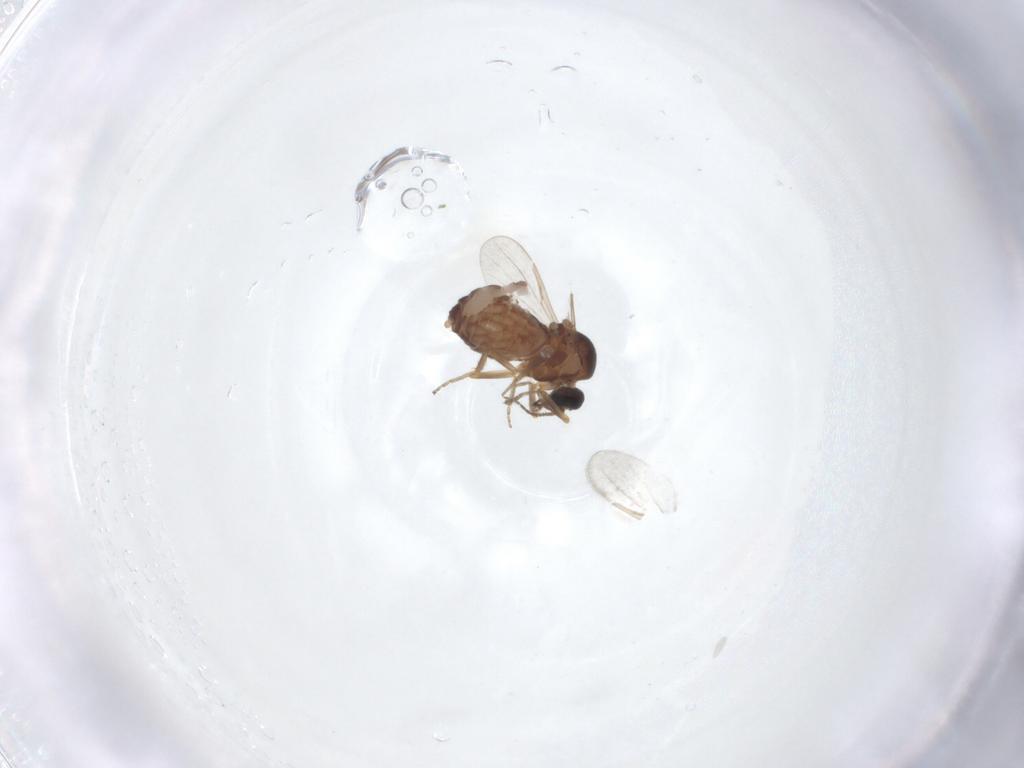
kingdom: Animalia
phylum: Arthropoda
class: Insecta
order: Diptera
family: Ceratopogonidae
